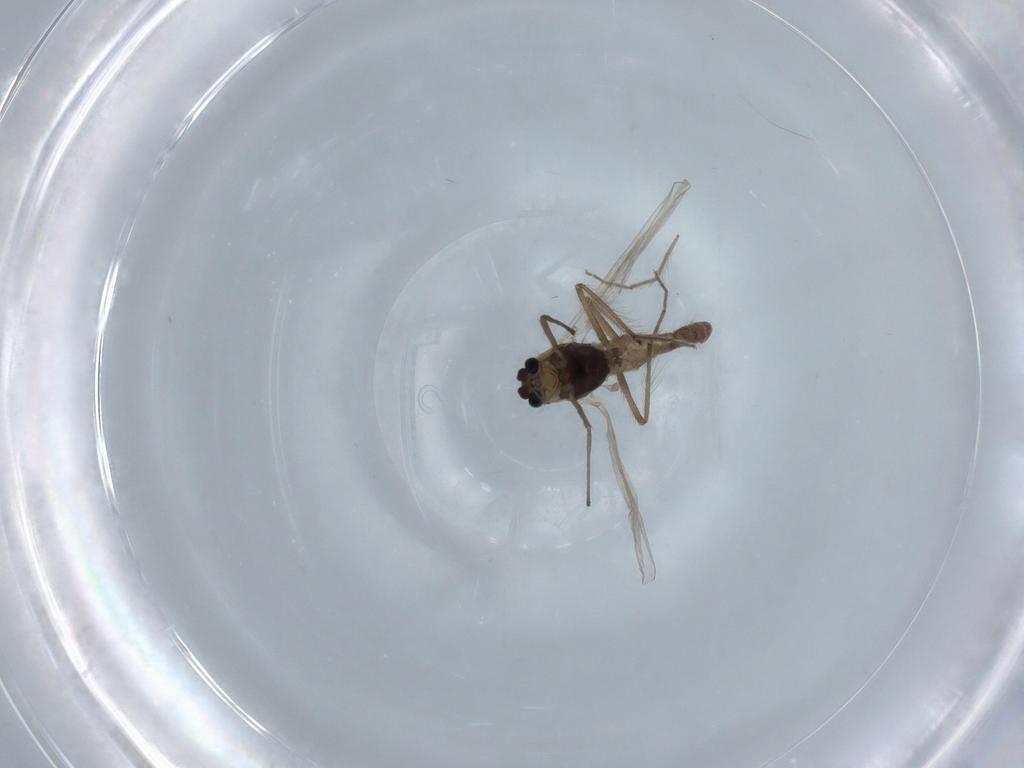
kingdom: Animalia
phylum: Arthropoda
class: Insecta
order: Diptera
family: Chironomidae
